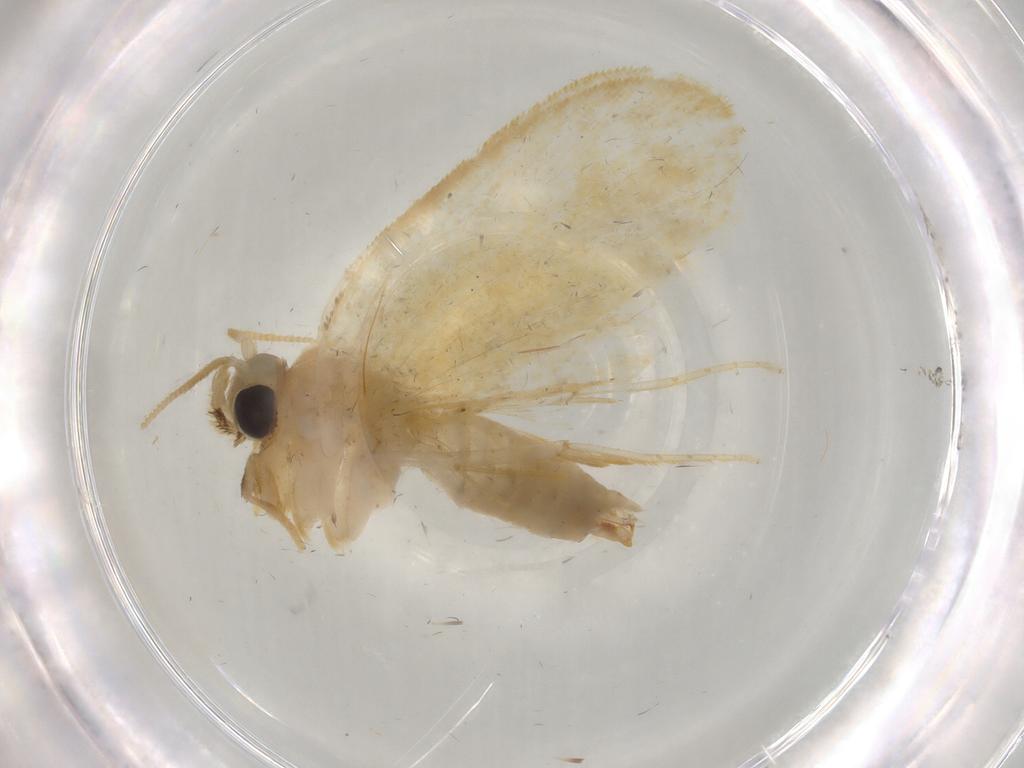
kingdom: Animalia
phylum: Arthropoda
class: Insecta
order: Lepidoptera
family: Psychidae
